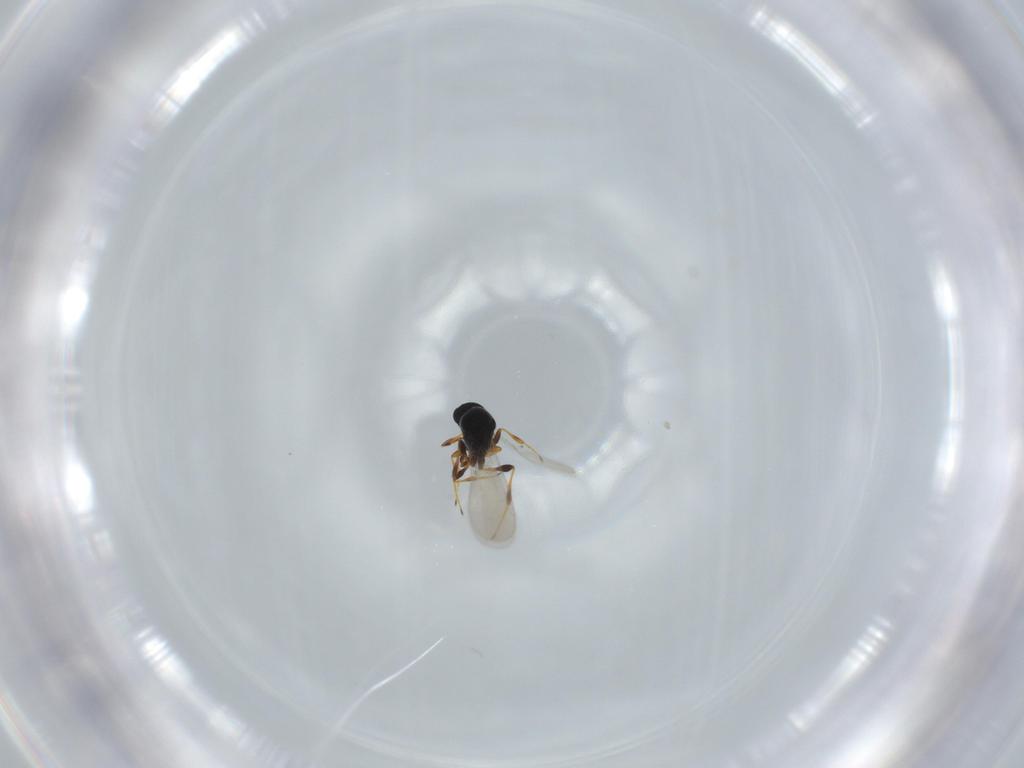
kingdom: Animalia
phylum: Arthropoda
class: Insecta
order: Hymenoptera
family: Platygastridae
